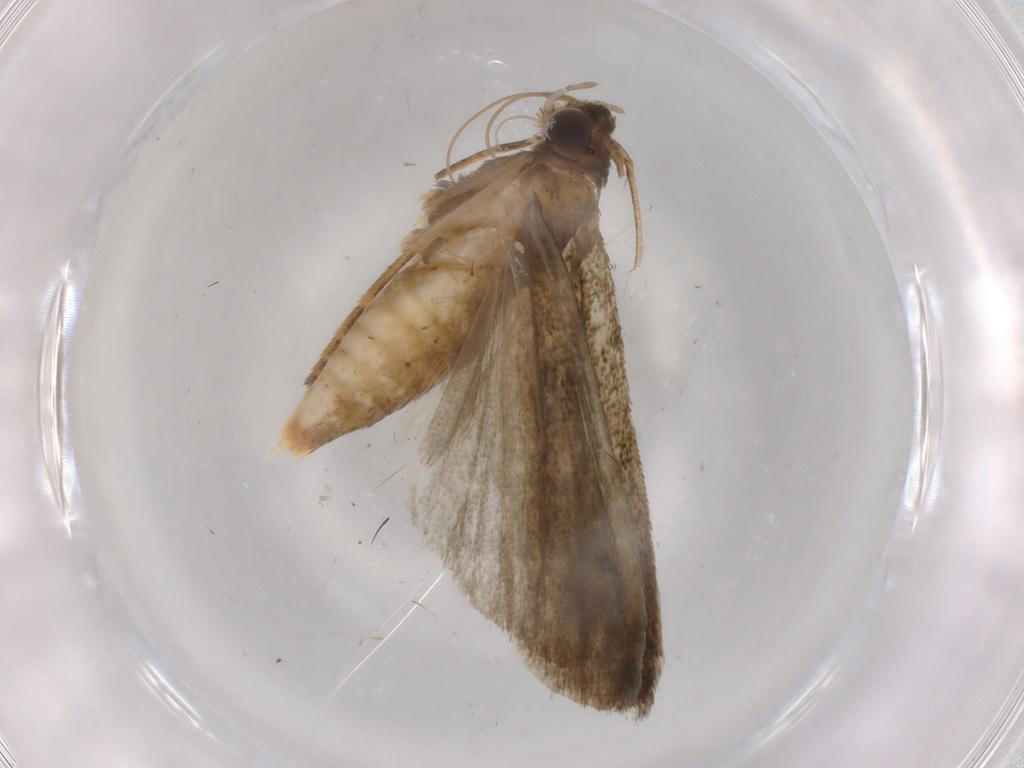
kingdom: Animalia
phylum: Arthropoda
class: Insecta
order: Lepidoptera
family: Noctuidae
